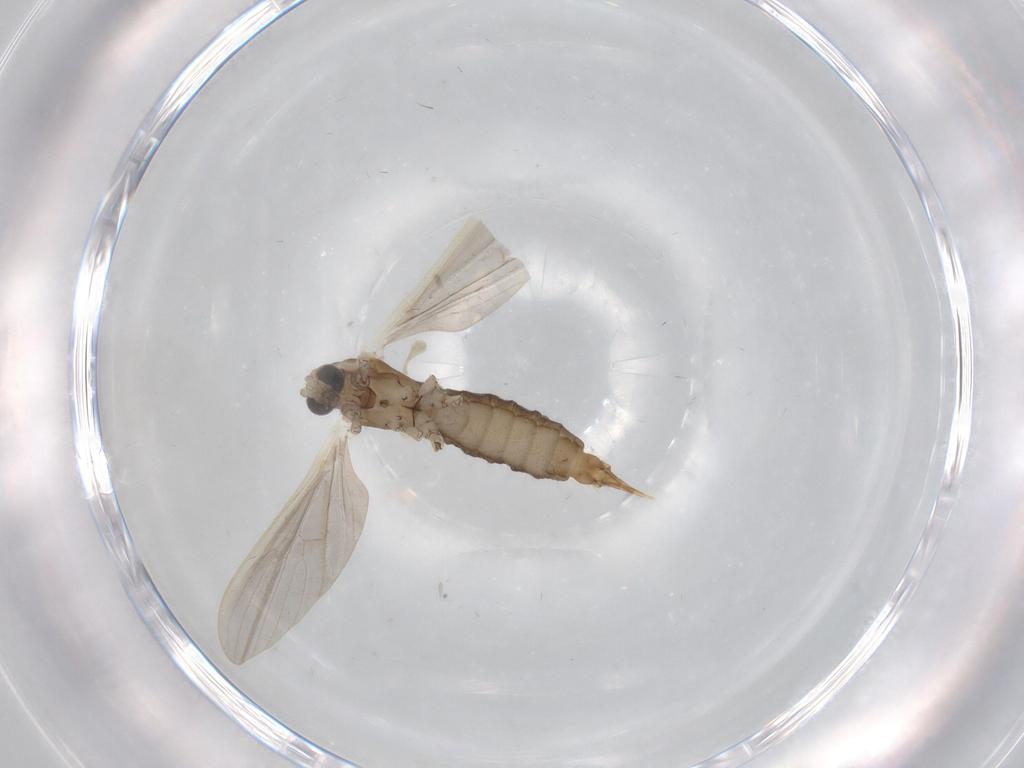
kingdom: Animalia
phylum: Arthropoda
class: Insecta
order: Diptera
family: Limoniidae
